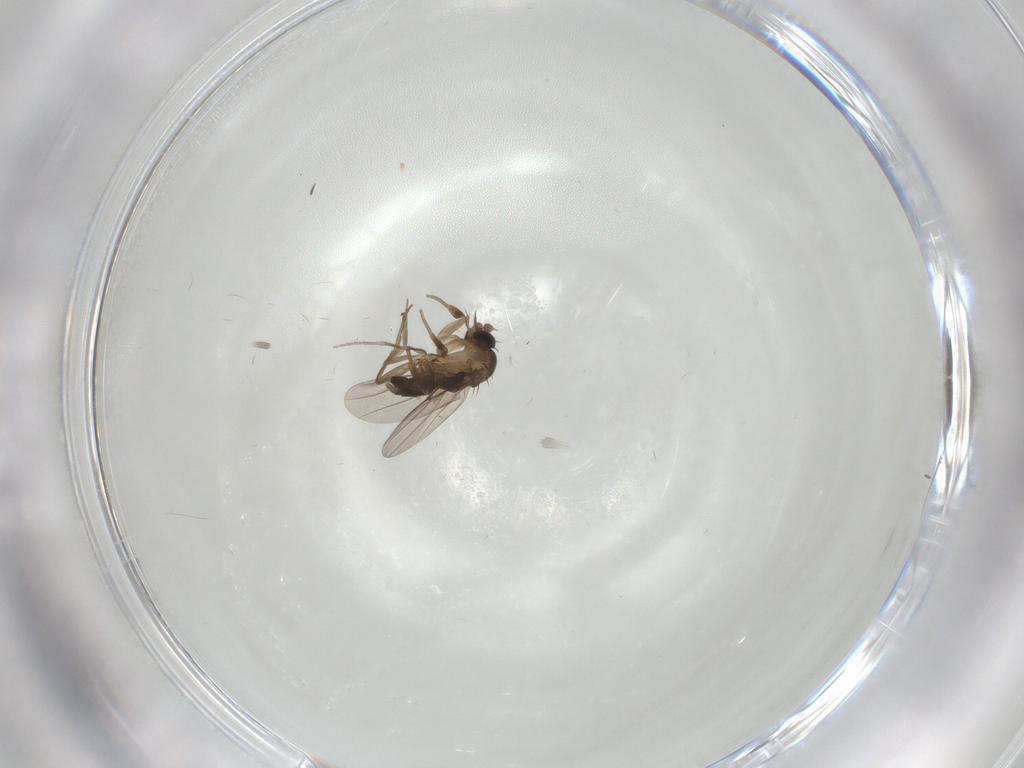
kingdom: Animalia
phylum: Arthropoda
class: Insecta
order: Diptera
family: Phoridae
